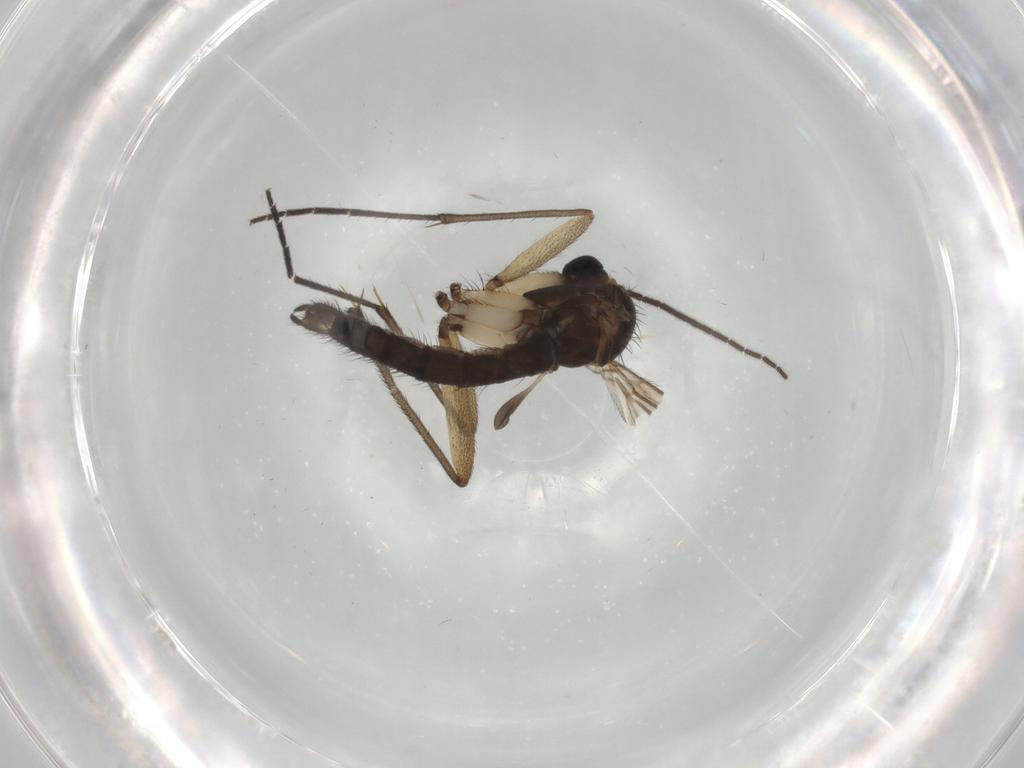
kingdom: Animalia
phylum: Arthropoda
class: Insecta
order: Diptera
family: Sciaridae
